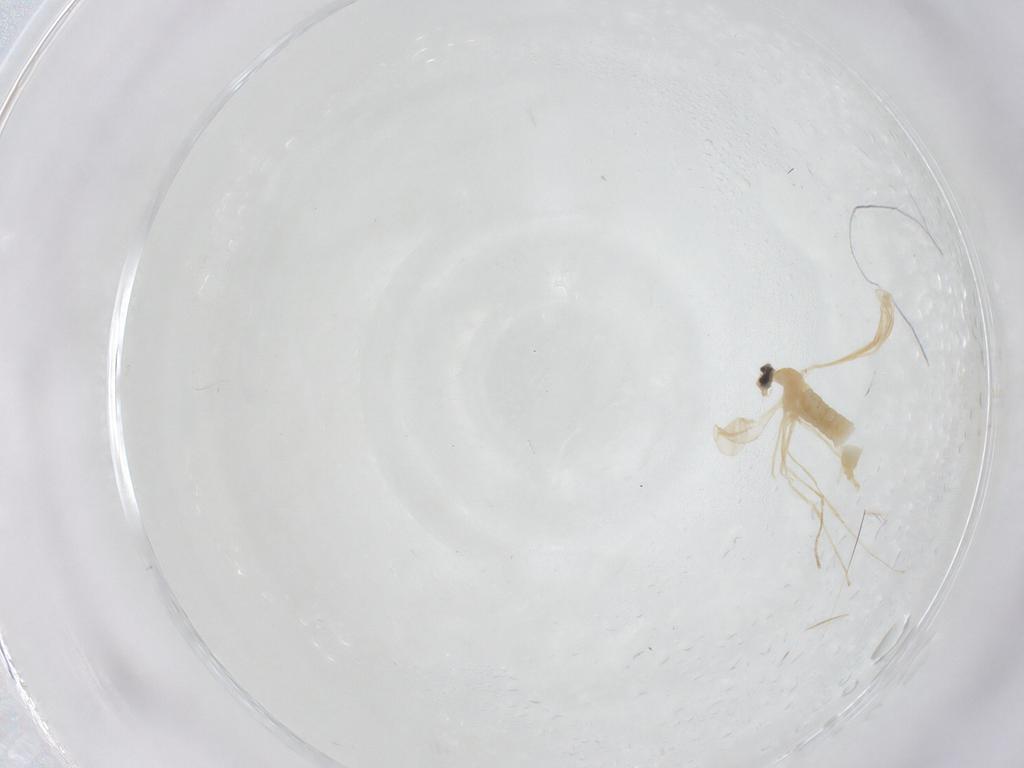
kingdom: Animalia
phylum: Arthropoda
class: Insecta
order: Diptera
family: Cecidomyiidae
